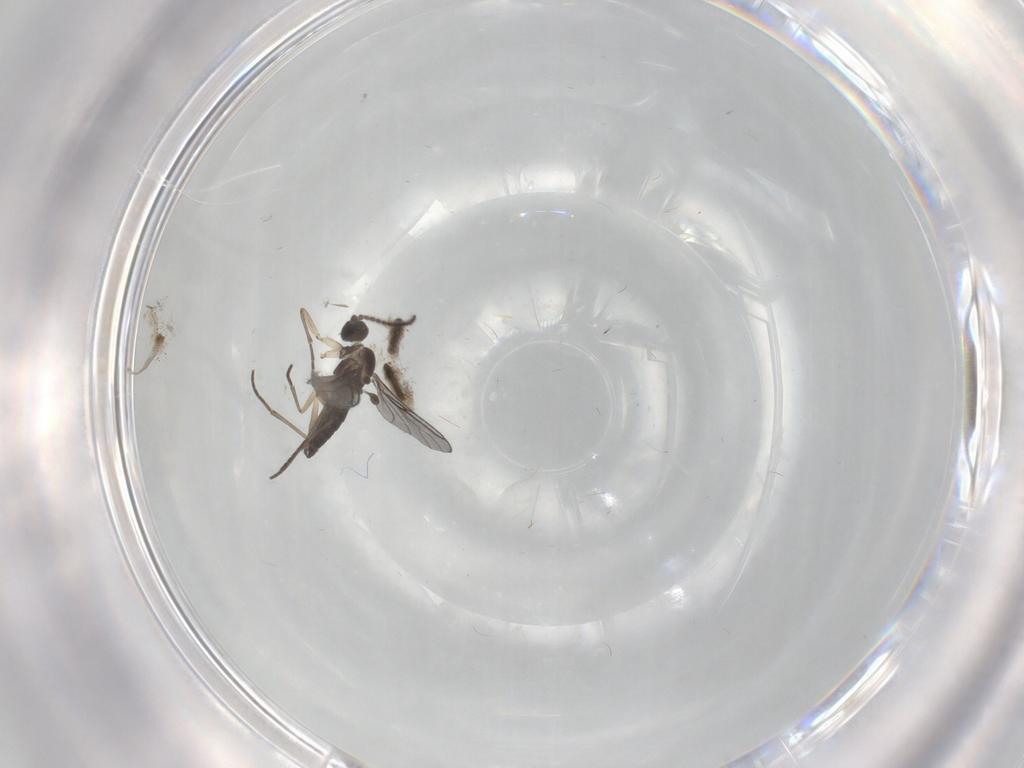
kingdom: Animalia
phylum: Arthropoda
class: Insecta
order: Diptera
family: Sciaridae
